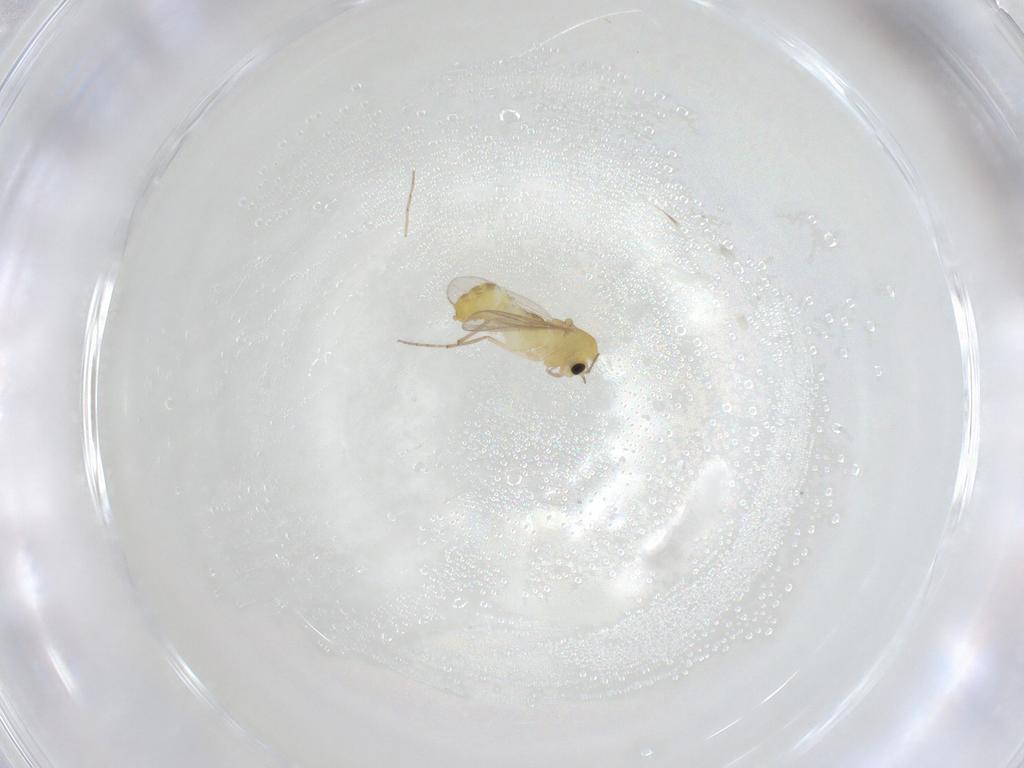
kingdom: Animalia
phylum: Arthropoda
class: Insecta
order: Diptera
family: Chironomidae
